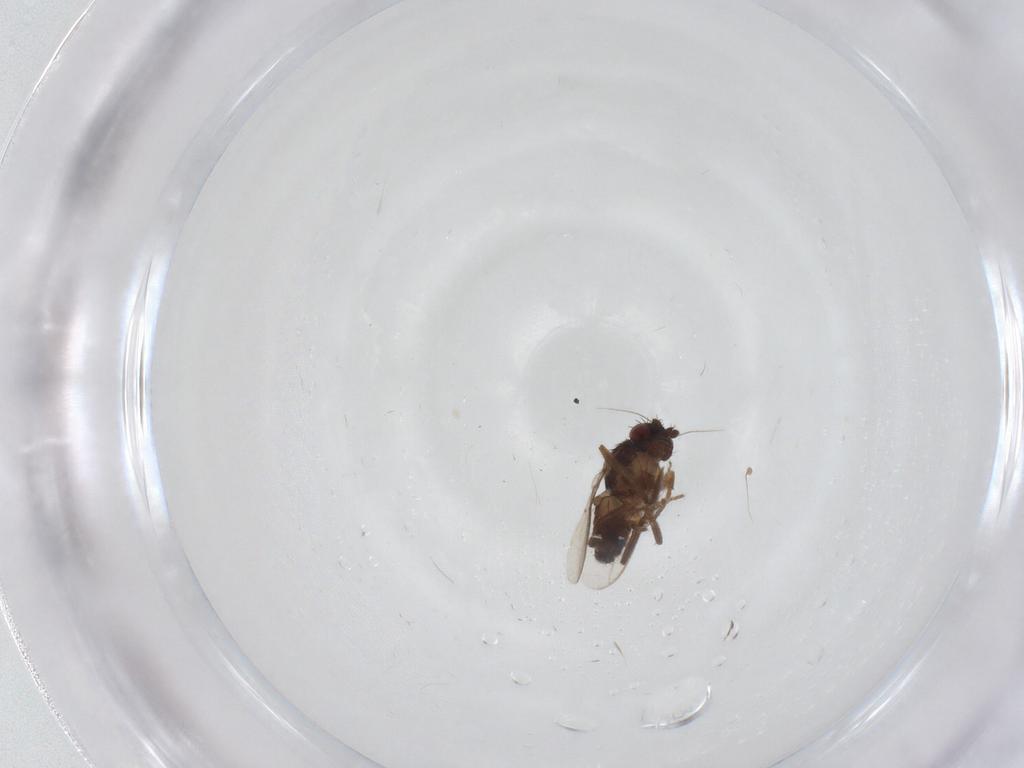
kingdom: Animalia
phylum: Arthropoda
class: Insecta
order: Diptera
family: Sphaeroceridae
